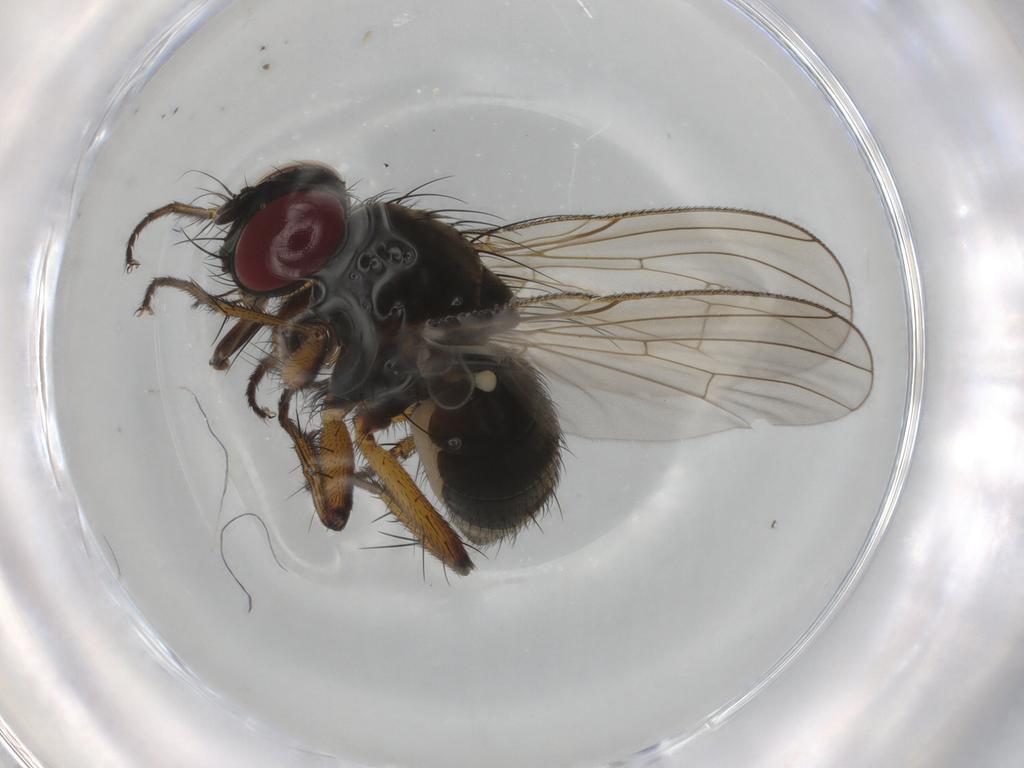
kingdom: Animalia
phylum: Arthropoda
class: Insecta
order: Diptera
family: Muscidae
